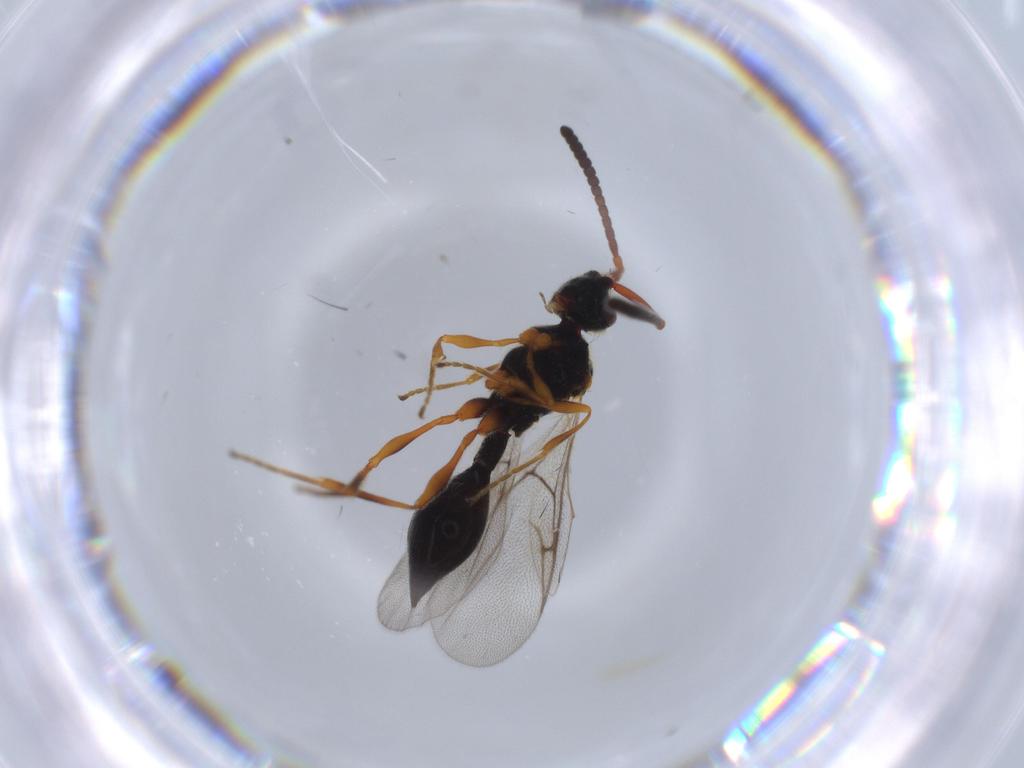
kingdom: Animalia
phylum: Arthropoda
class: Insecta
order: Hymenoptera
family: Diapriidae
